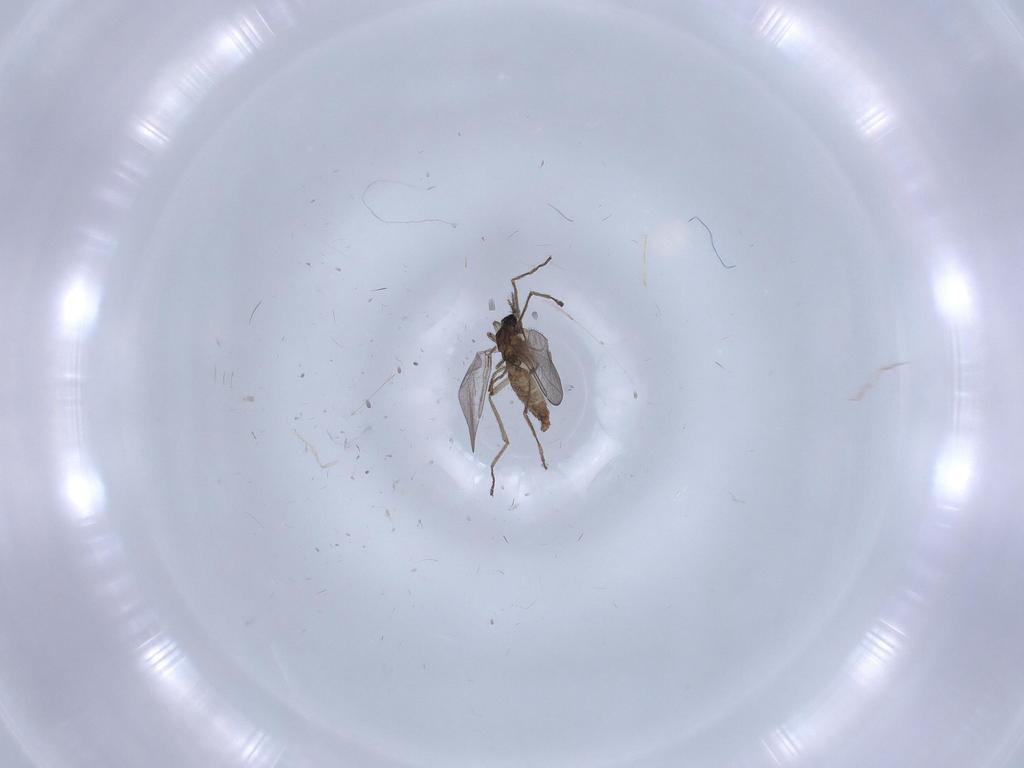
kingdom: Animalia
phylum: Arthropoda
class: Insecta
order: Diptera
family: Cecidomyiidae
